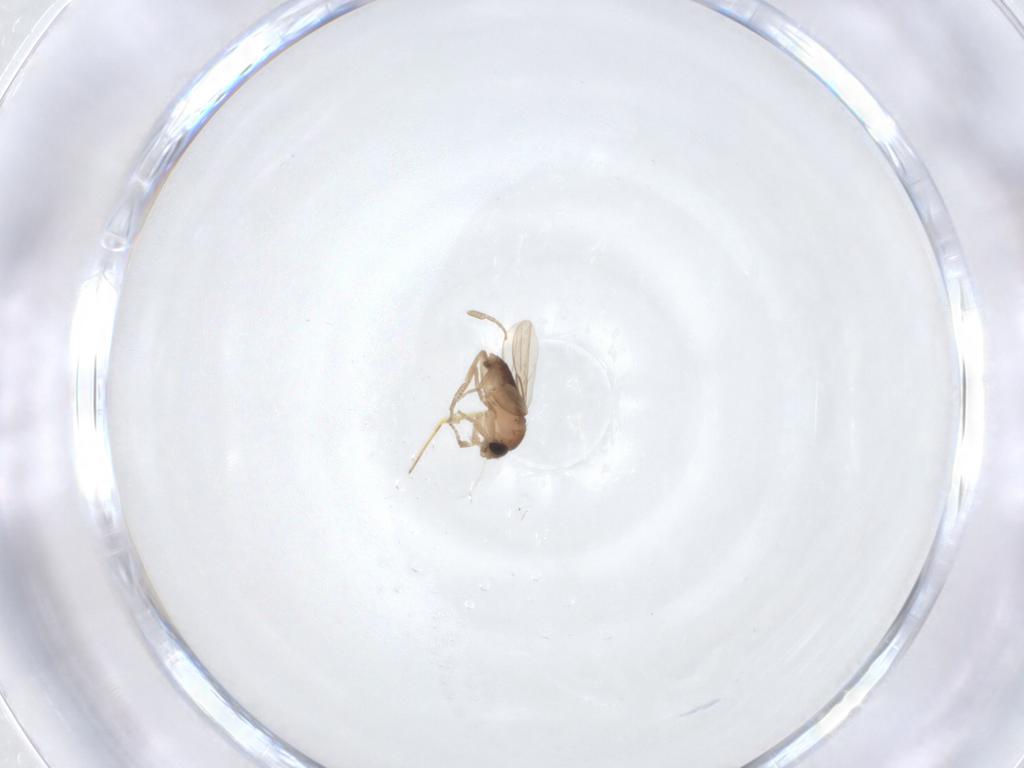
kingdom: Animalia
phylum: Arthropoda
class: Insecta
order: Diptera
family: Phoridae
